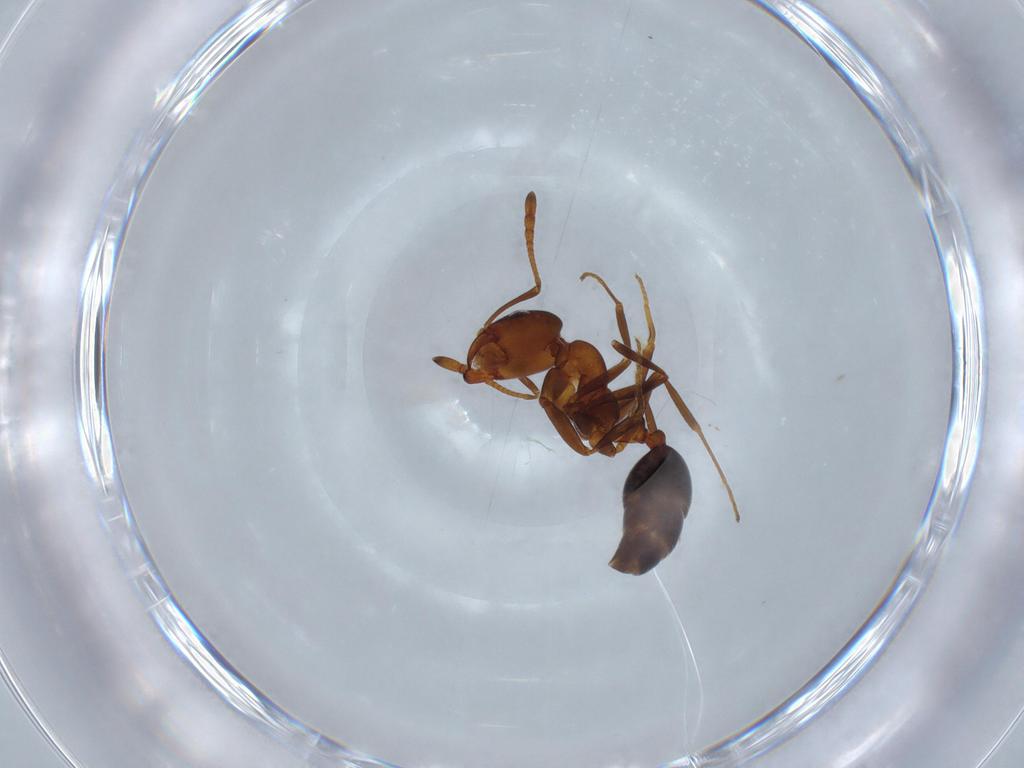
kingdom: Animalia
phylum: Arthropoda
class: Insecta
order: Hymenoptera
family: Formicidae
